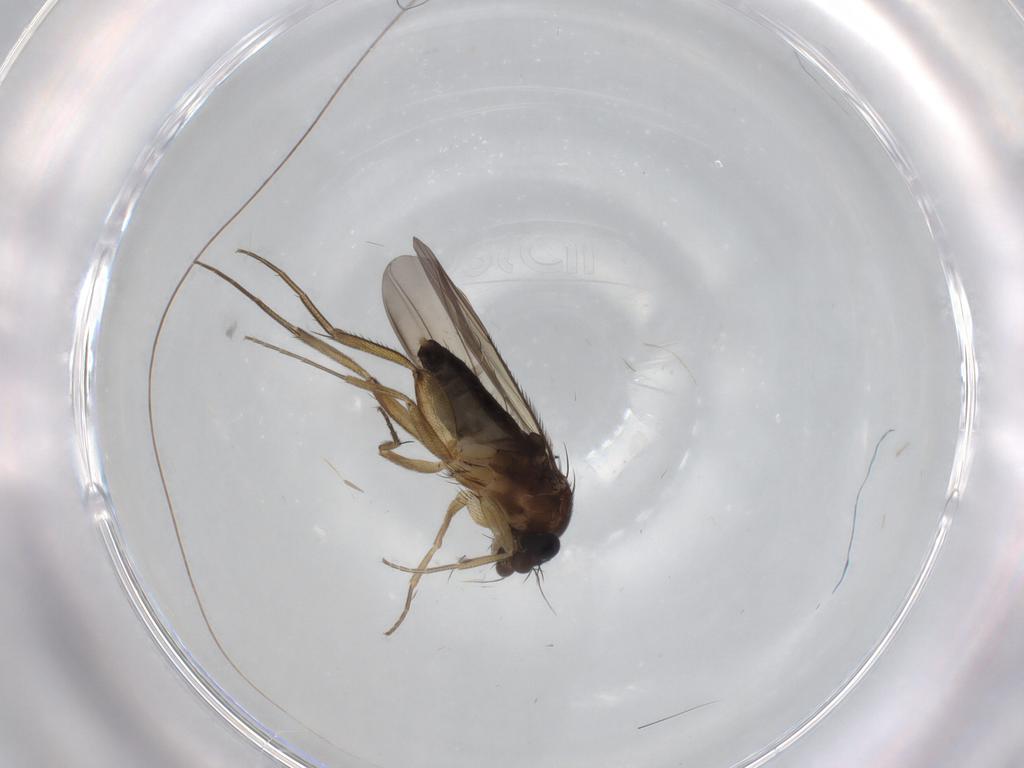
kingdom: Animalia
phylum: Arthropoda
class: Insecta
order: Diptera
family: Phoridae
